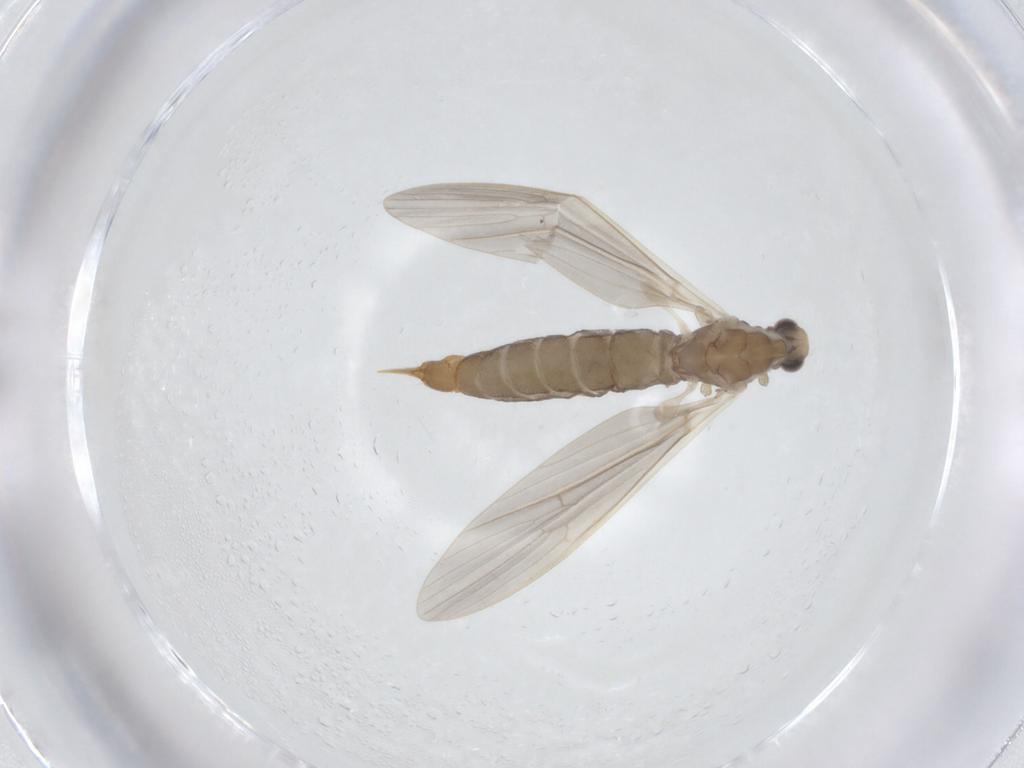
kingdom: Animalia
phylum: Arthropoda
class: Insecta
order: Diptera
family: Limoniidae
